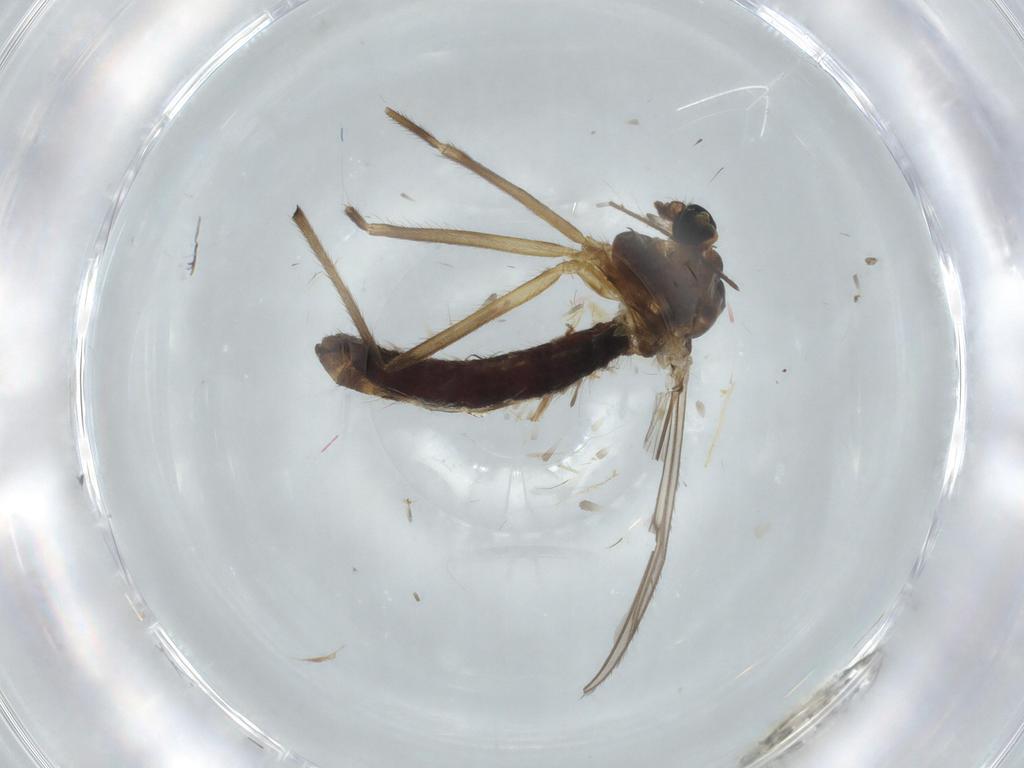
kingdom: Animalia
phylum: Arthropoda
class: Insecta
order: Diptera
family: Chironomidae
